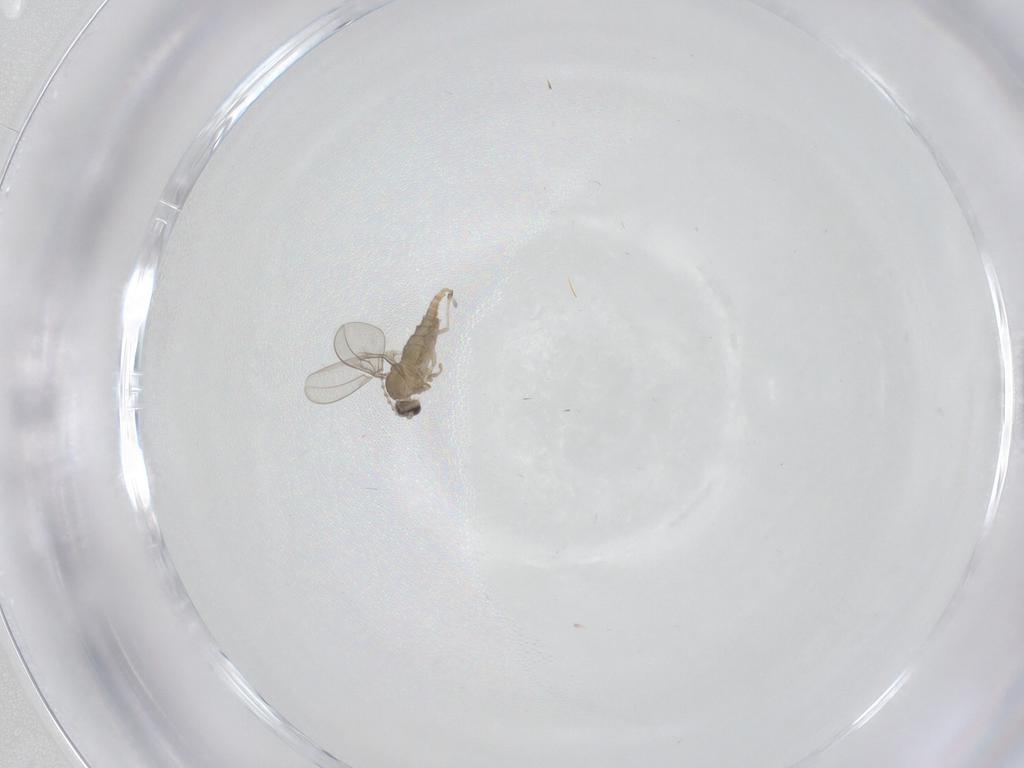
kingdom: Animalia
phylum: Arthropoda
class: Insecta
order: Diptera
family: Cecidomyiidae
